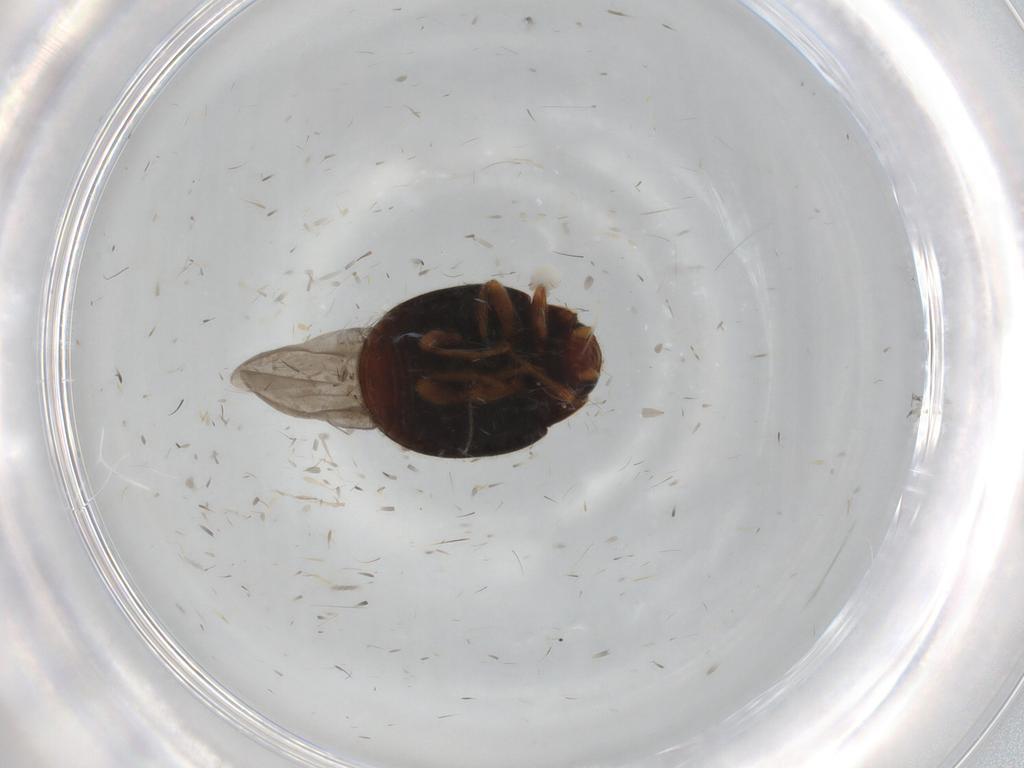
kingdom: Animalia
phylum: Arthropoda
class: Insecta
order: Coleoptera
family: Coccinellidae
